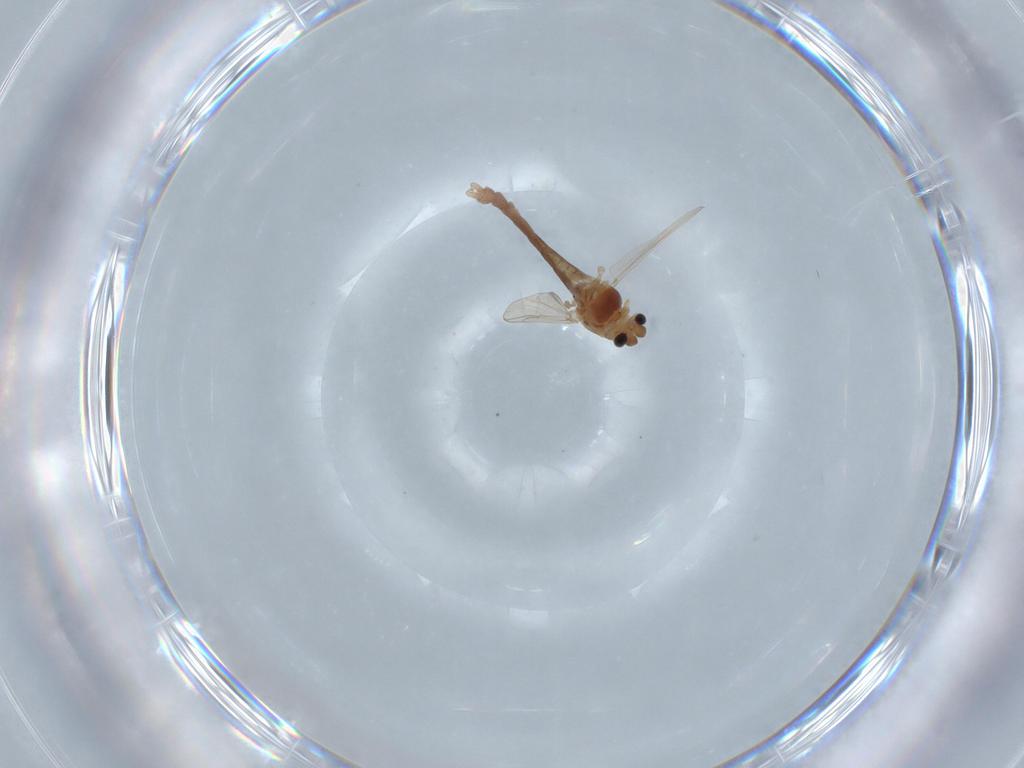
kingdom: Animalia
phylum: Arthropoda
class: Insecta
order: Diptera
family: Chironomidae
